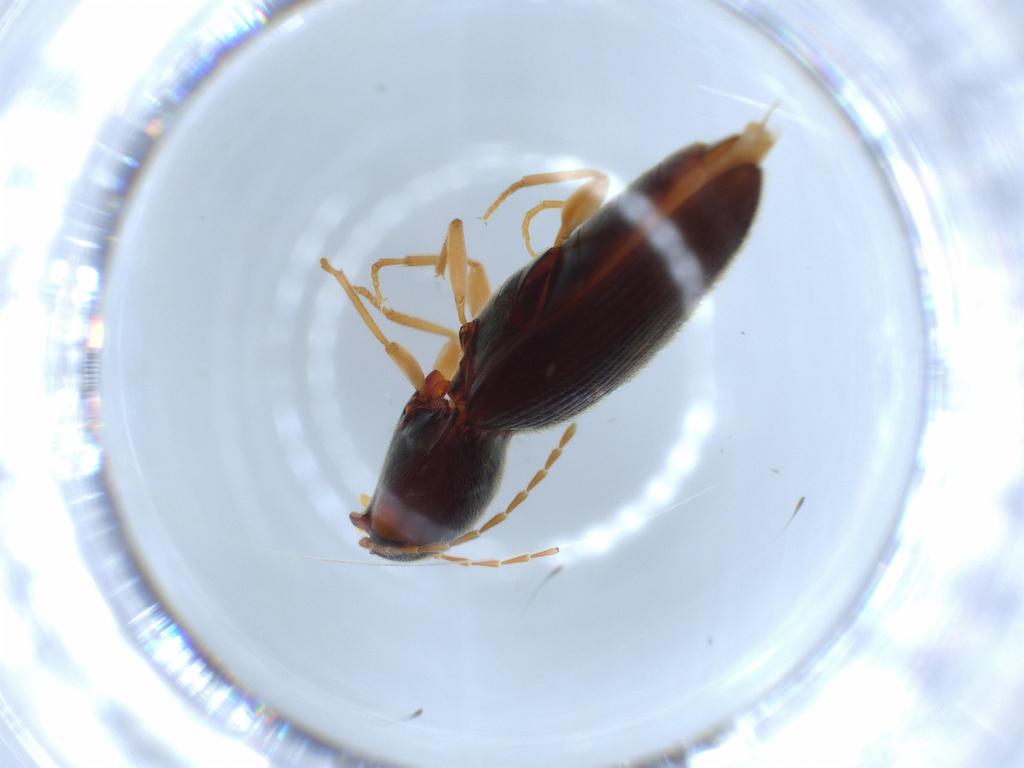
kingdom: Animalia
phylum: Arthropoda
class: Insecta
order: Coleoptera
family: Elateridae
